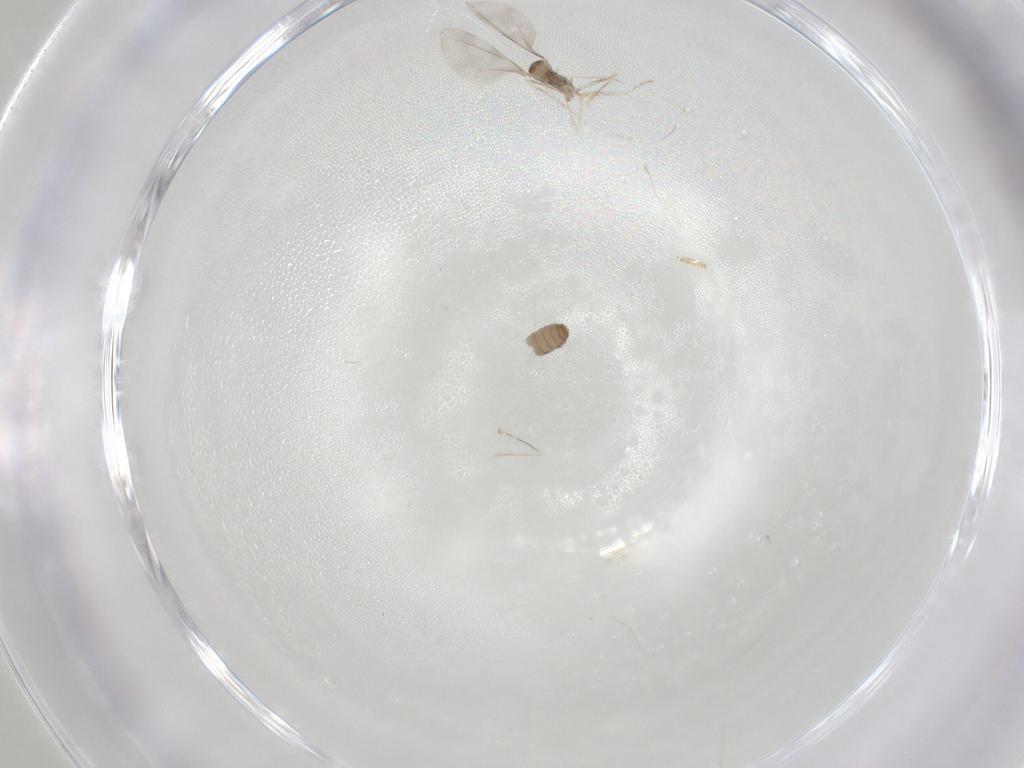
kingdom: Animalia
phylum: Arthropoda
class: Insecta
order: Diptera
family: Cecidomyiidae
